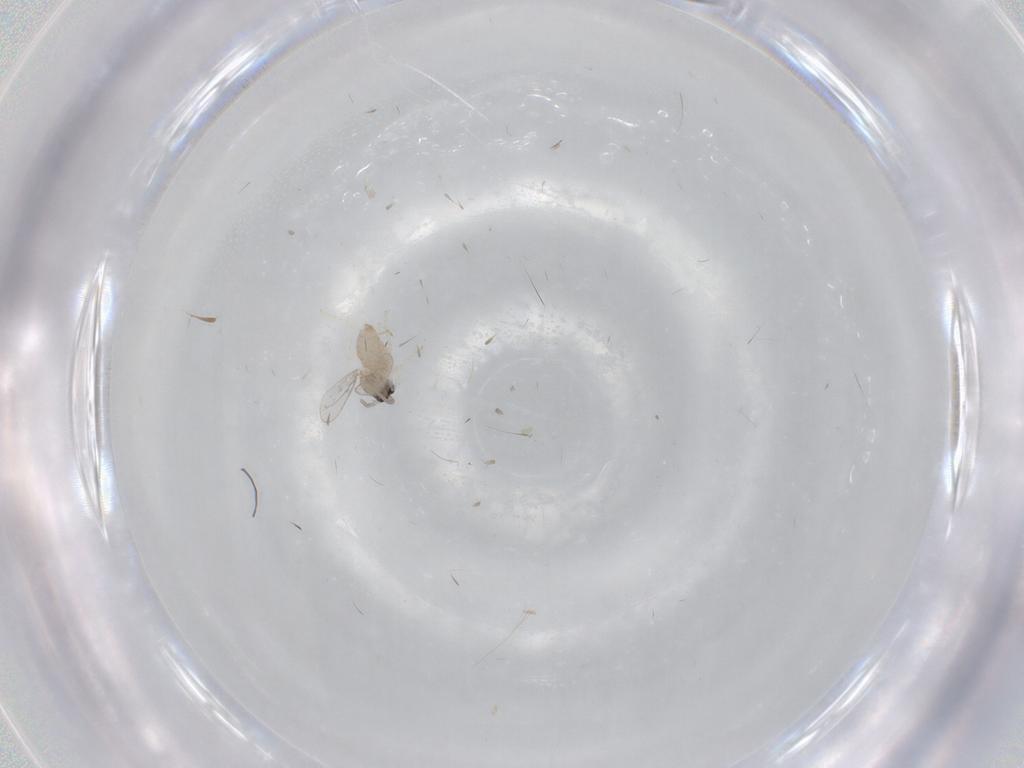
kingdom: Animalia
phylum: Arthropoda
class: Insecta
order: Diptera
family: Cecidomyiidae
